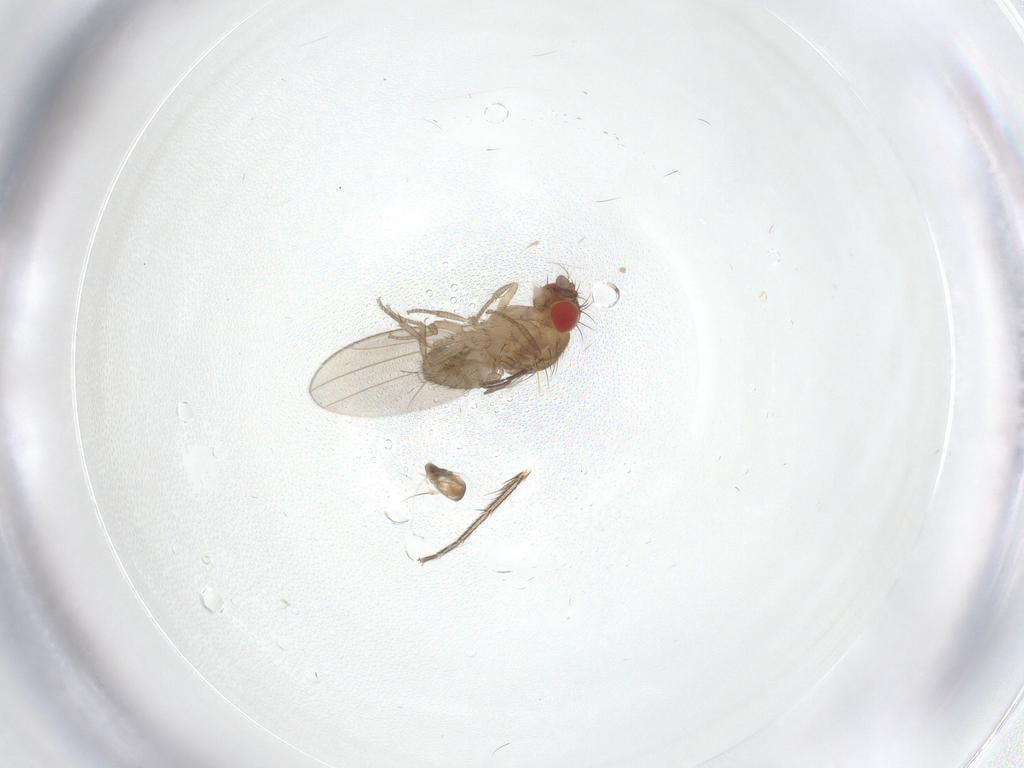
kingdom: Animalia
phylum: Arthropoda
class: Insecta
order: Diptera
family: Drosophilidae
